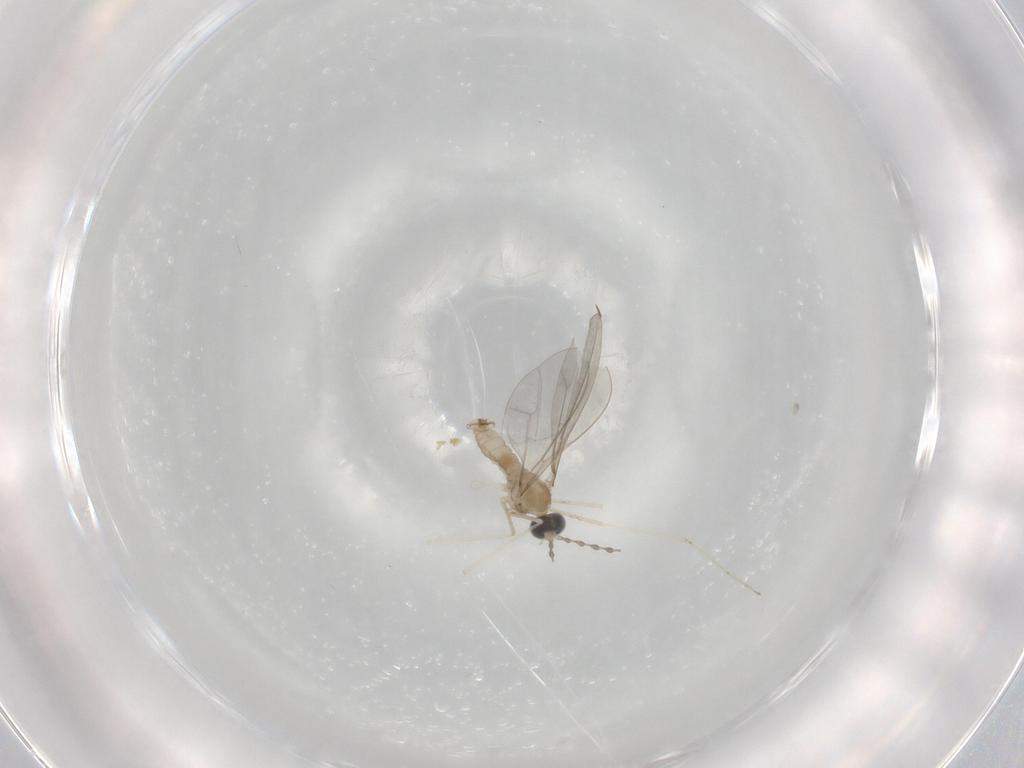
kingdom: Animalia
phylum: Arthropoda
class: Insecta
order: Diptera
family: Cecidomyiidae
